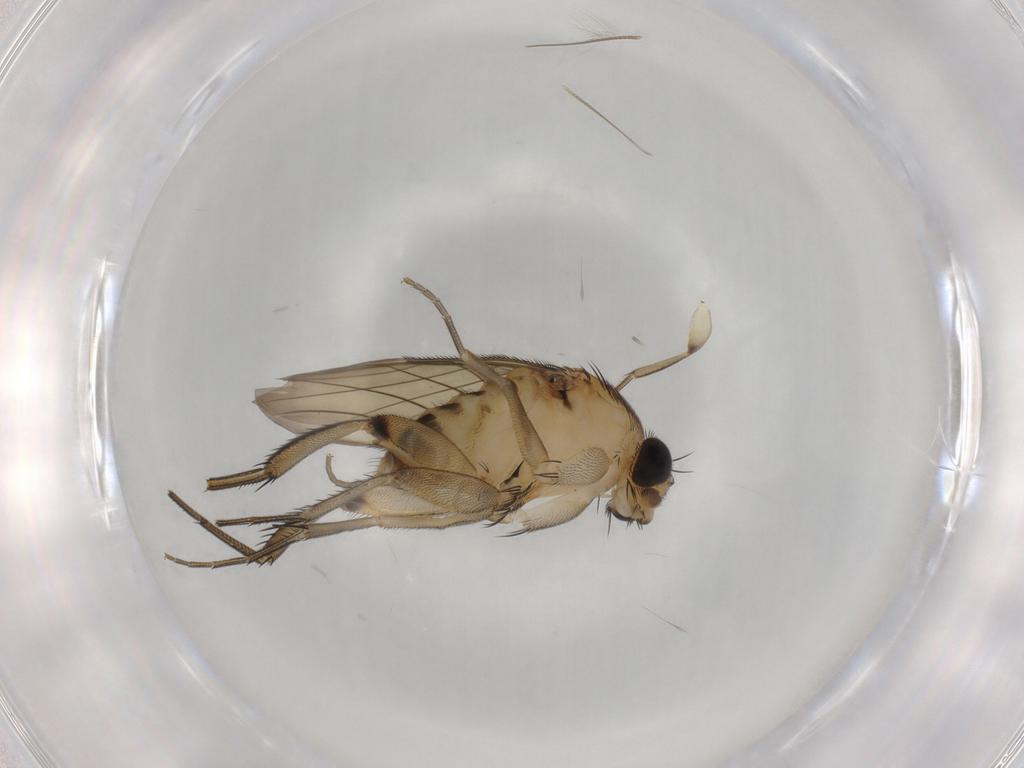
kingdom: Animalia
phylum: Arthropoda
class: Insecta
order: Diptera
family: Phoridae
